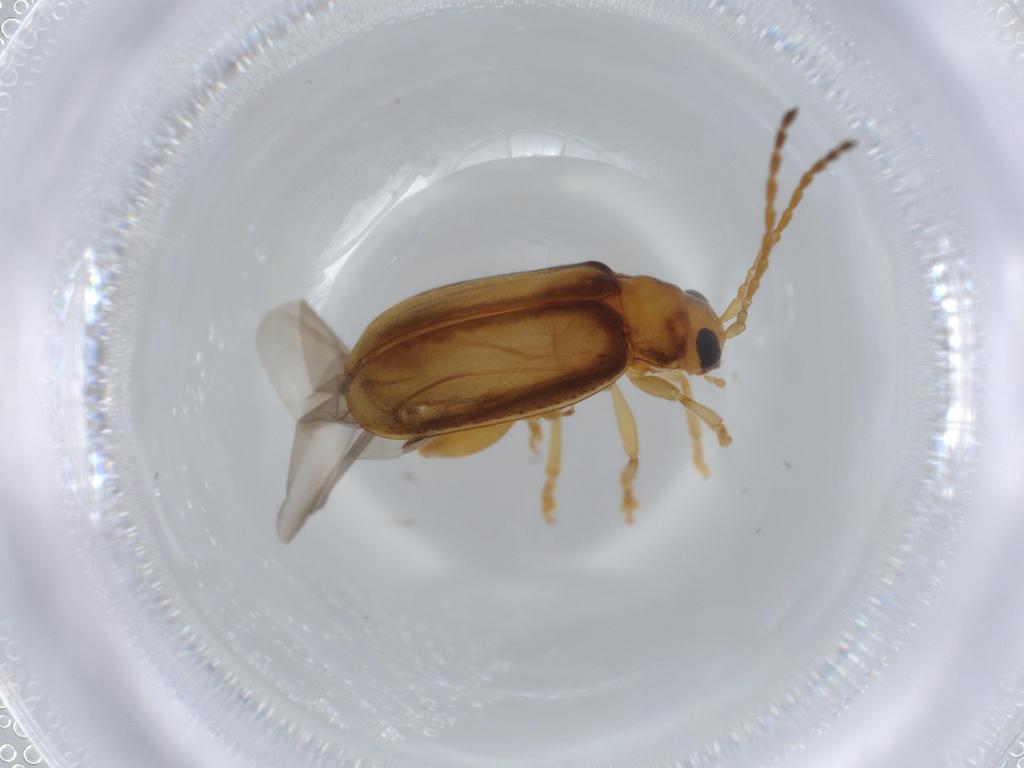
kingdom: Animalia
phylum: Arthropoda
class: Insecta
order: Coleoptera
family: Chrysomelidae
